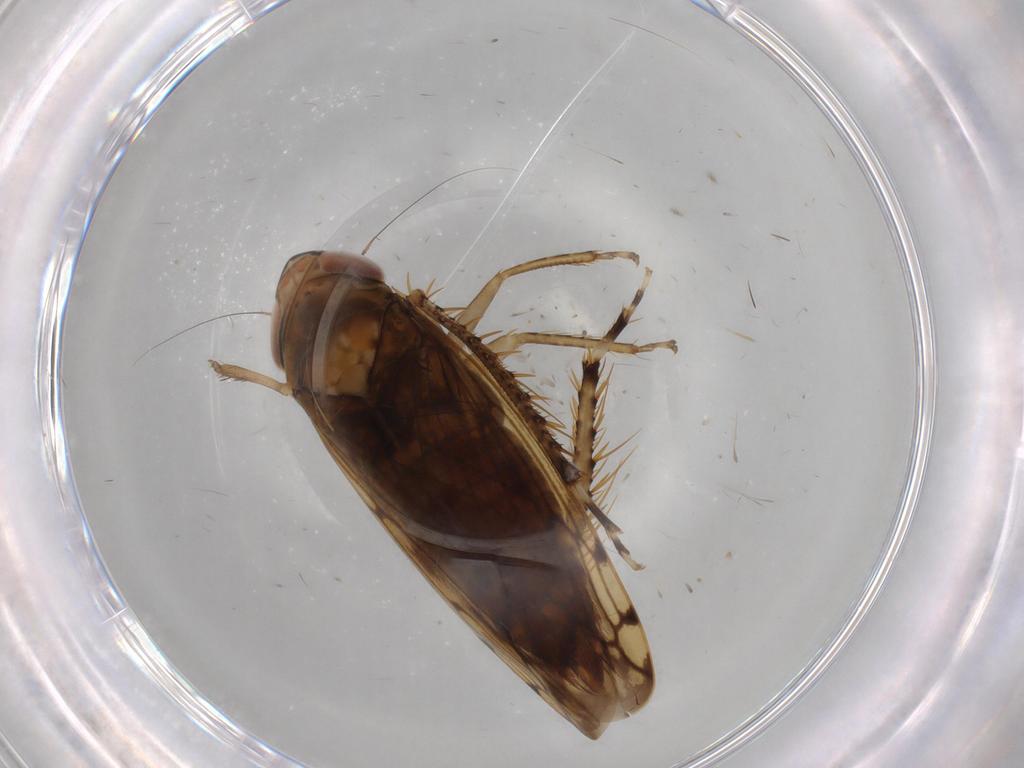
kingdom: Animalia
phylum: Arthropoda
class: Insecta
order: Hemiptera
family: Cicadellidae
